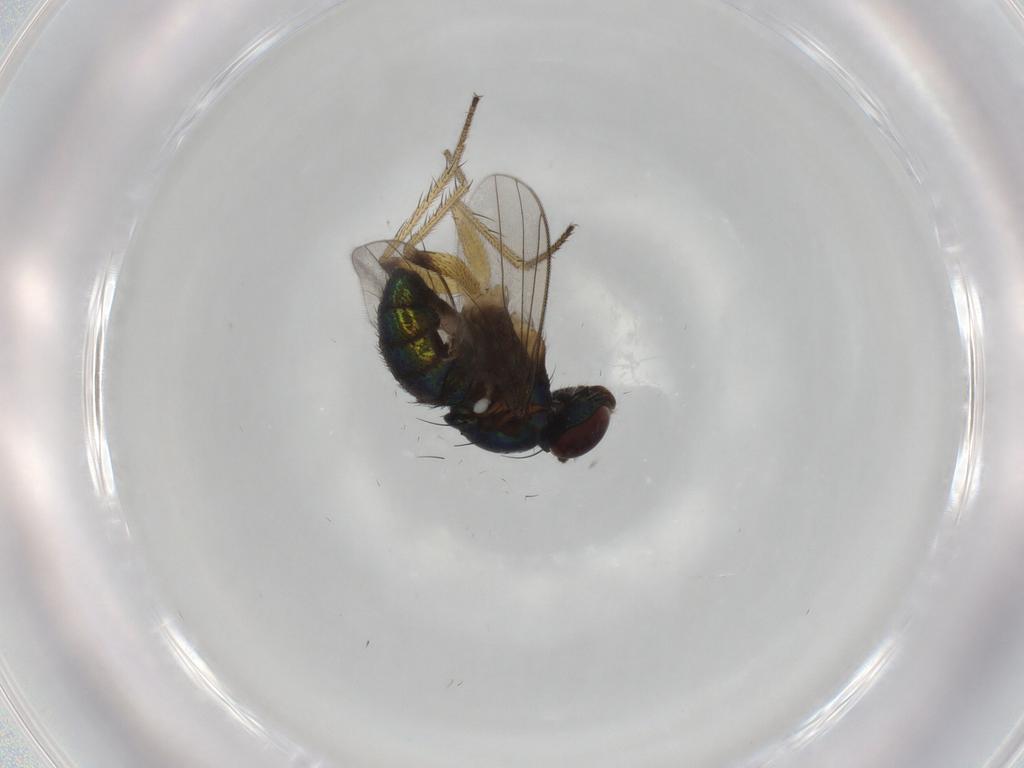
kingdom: Animalia
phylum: Arthropoda
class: Insecta
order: Diptera
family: Dolichopodidae
